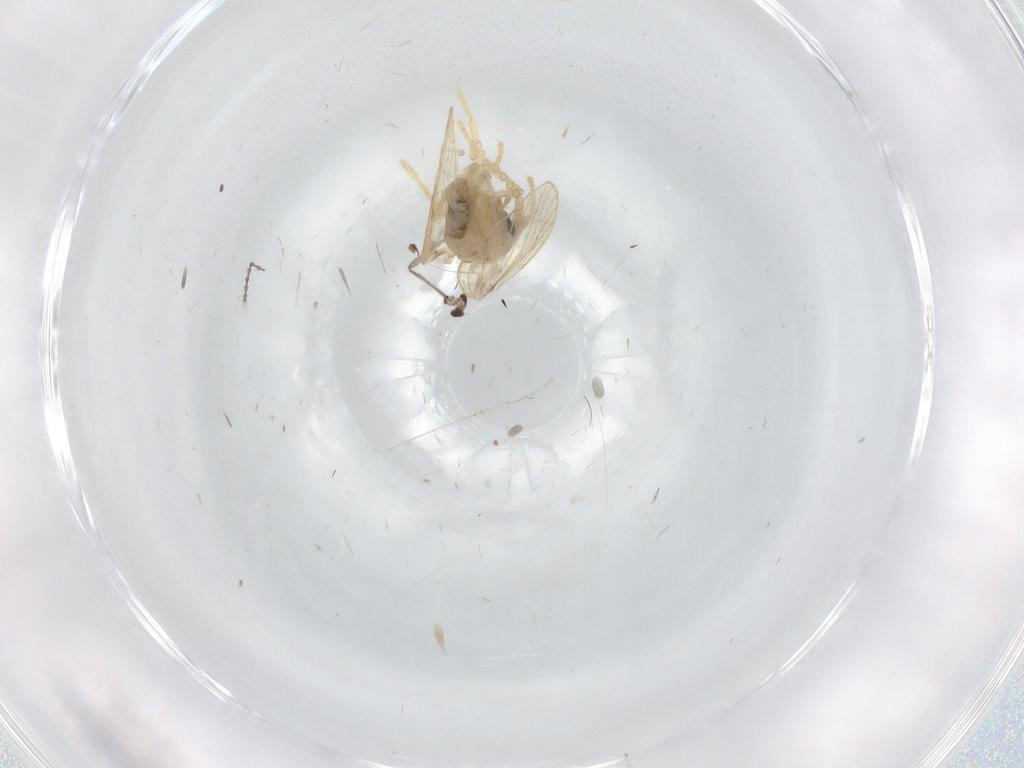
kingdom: Animalia
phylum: Arthropoda
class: Insecta
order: Diptera
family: Psychodidae
